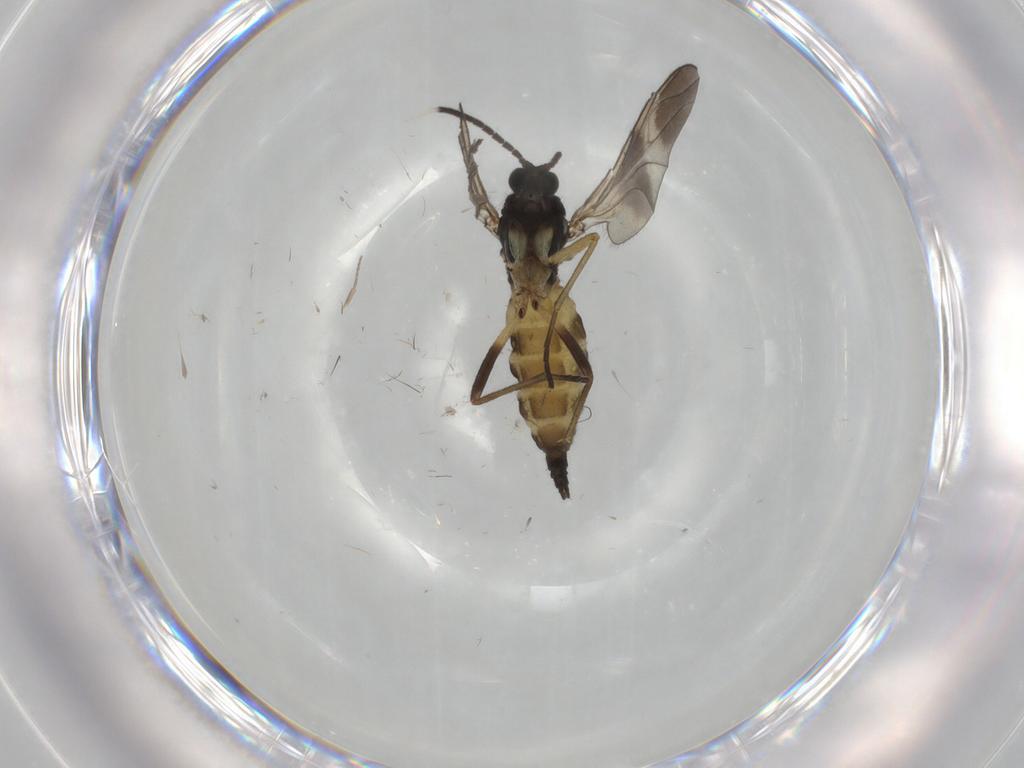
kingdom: Animalia
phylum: Arthropoda
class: Insecta
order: Diptera
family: Sciaridae
